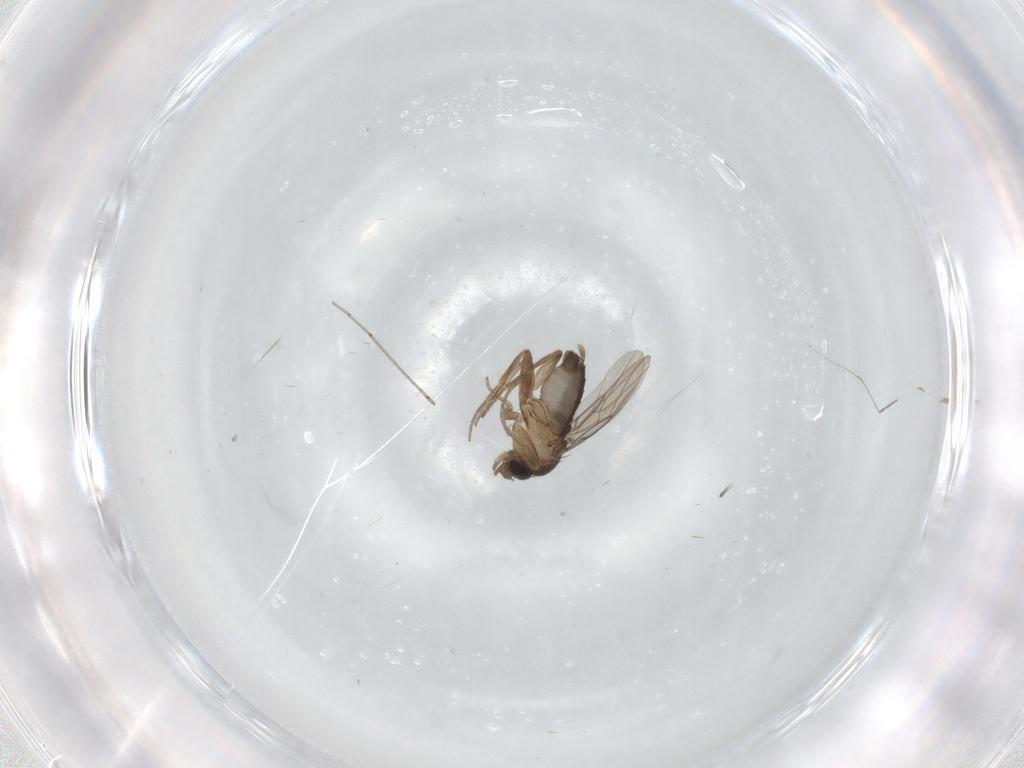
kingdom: Animalia
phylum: Arthropoda
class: Insecta
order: Diptera
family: Phoridae
